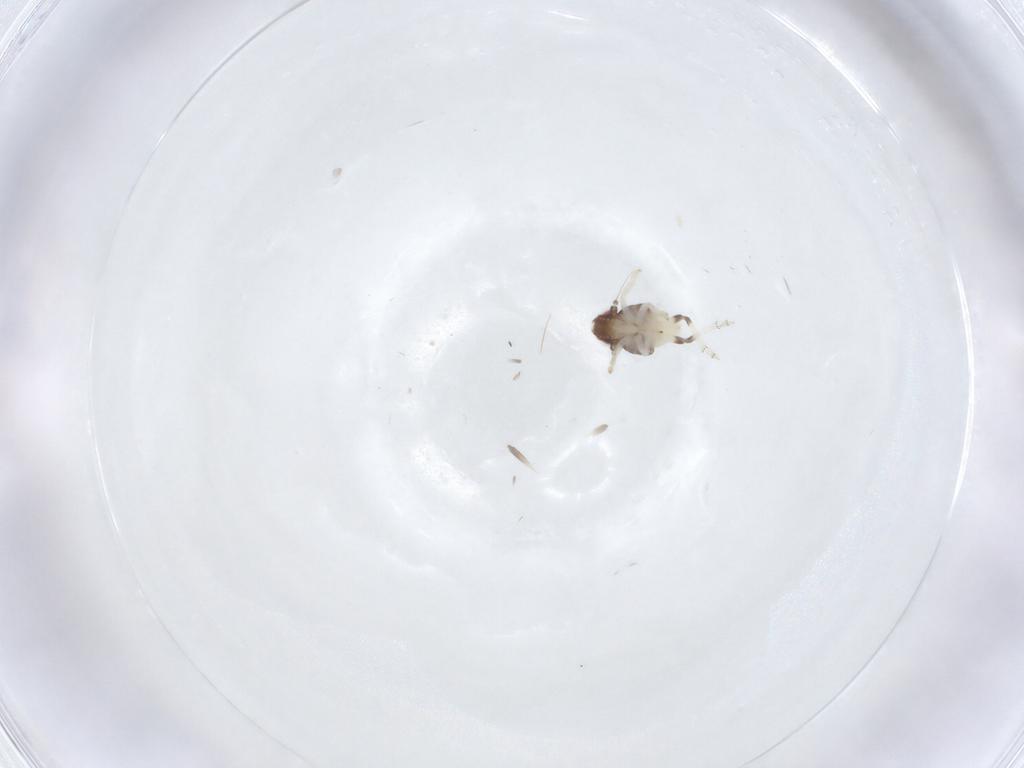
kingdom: Animalia
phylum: Arthropoda
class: Insecta
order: Hemiptera
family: Nogodinidae
